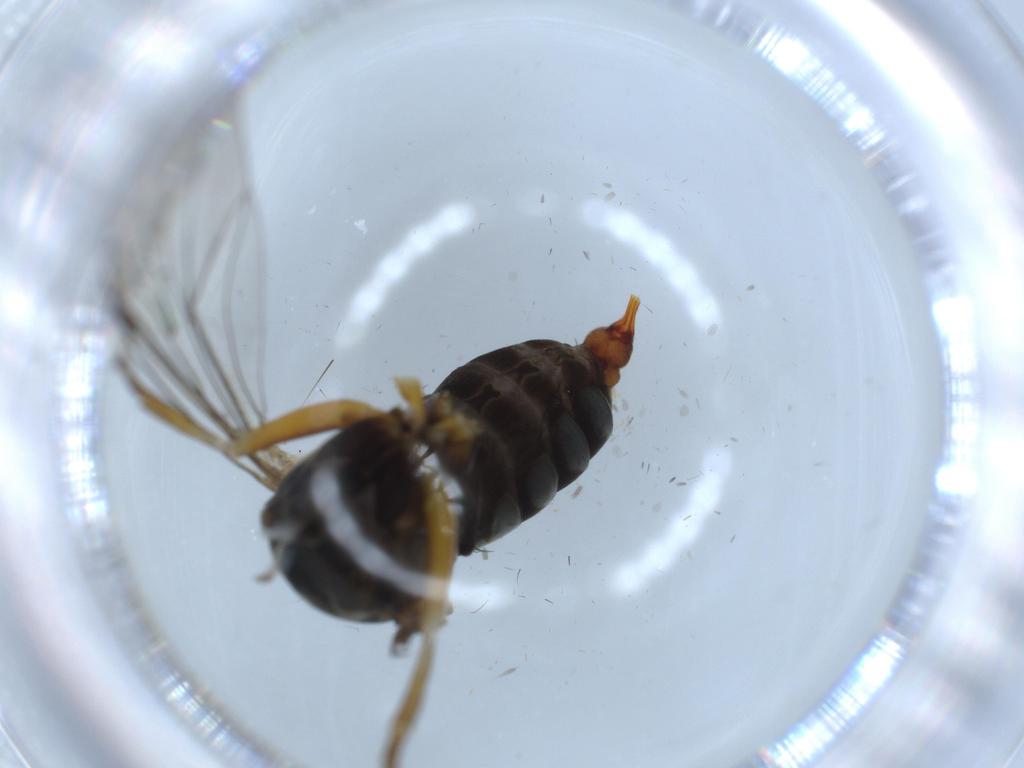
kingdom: Animalia
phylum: Arthropoda
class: Insecta
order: Diptera
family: Pipunculidae
